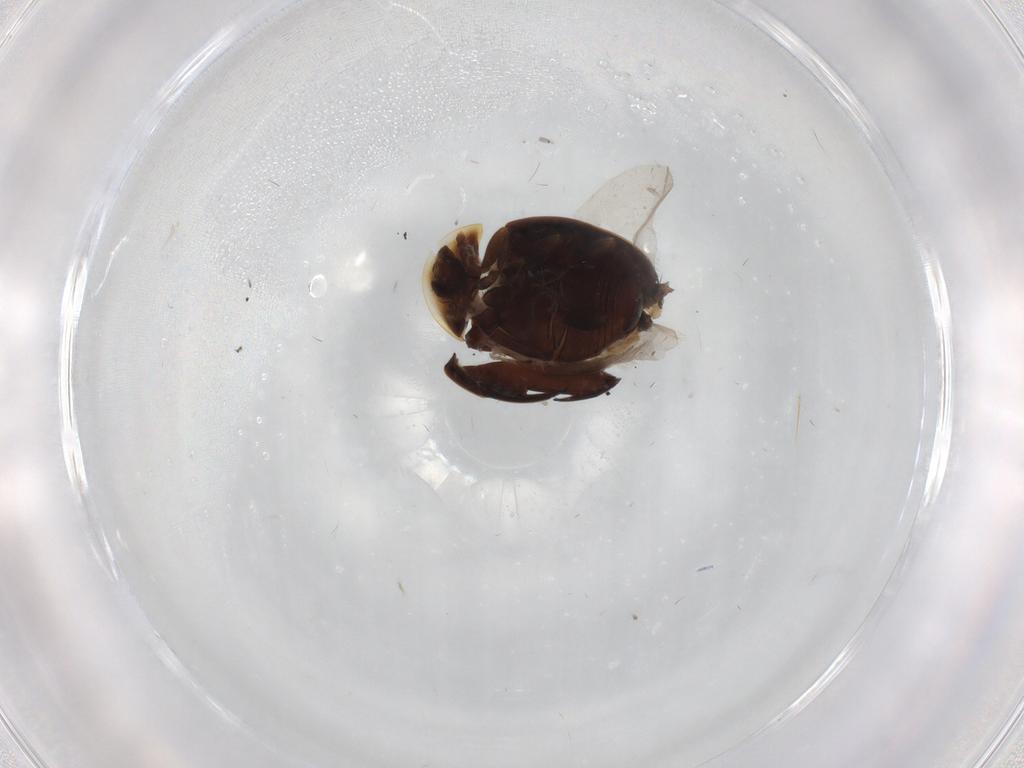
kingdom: Animalia
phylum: Arthropoda
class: Insecta
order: Coleoptera
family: Corylophidae
